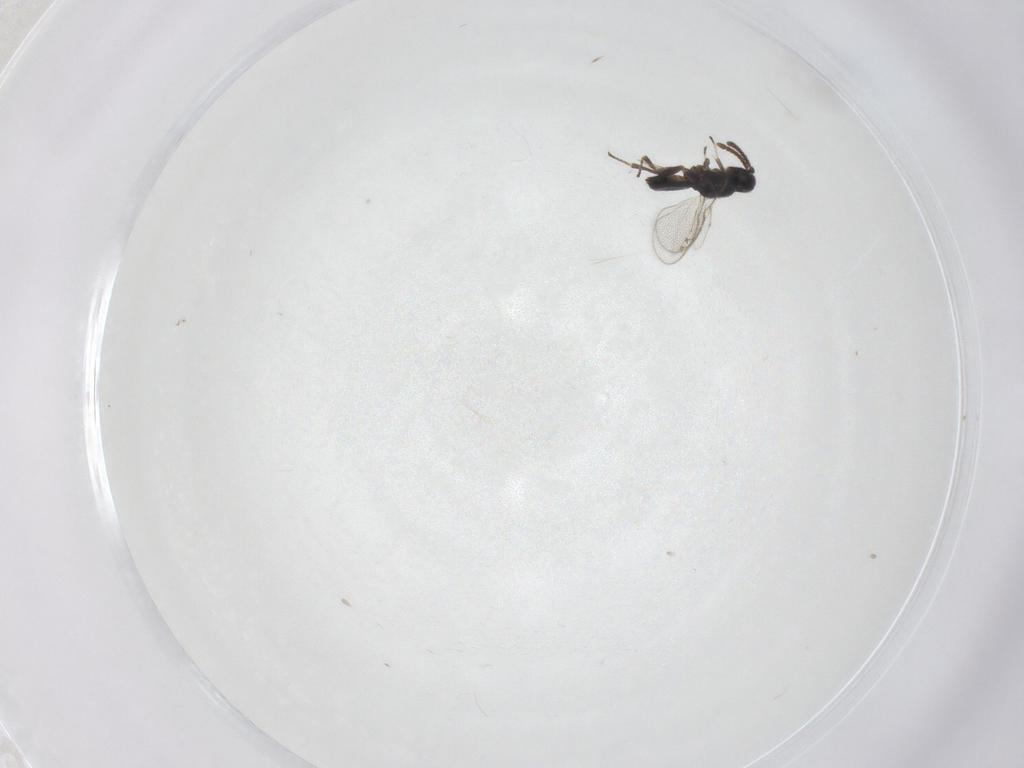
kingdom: Animalia
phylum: Arthropoda
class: Insecta
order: Hymenoptera
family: Eupelmidae
